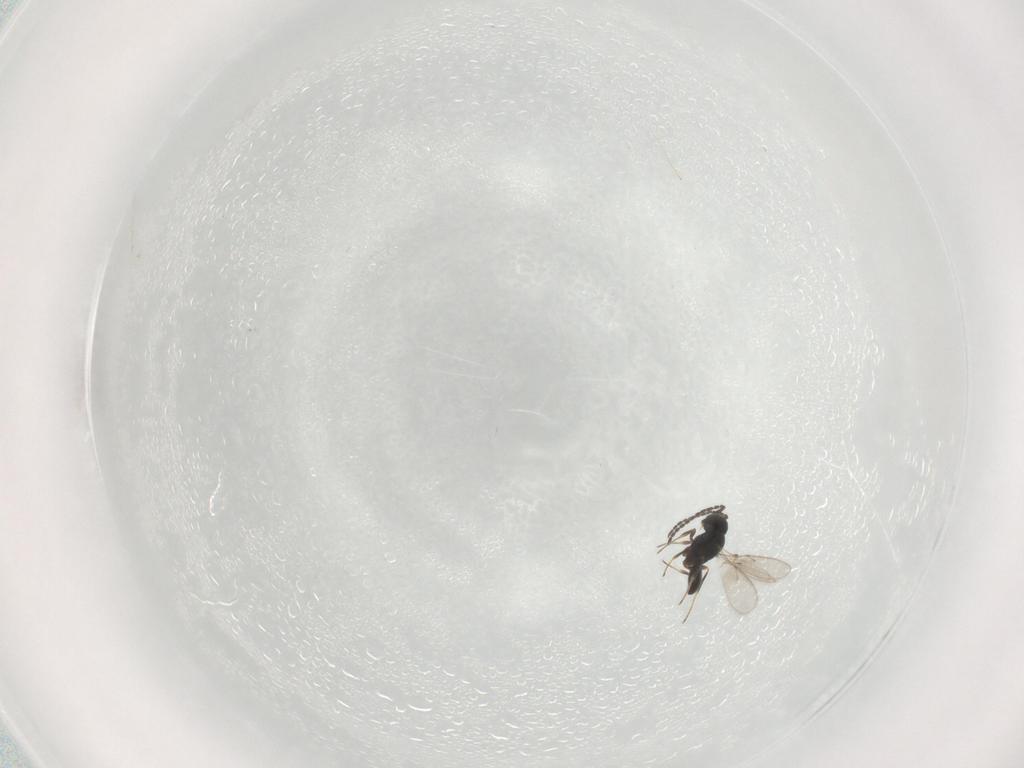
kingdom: Animalia
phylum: Arthropoda
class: Insecta
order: Hymenoptera
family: Scelionidae
